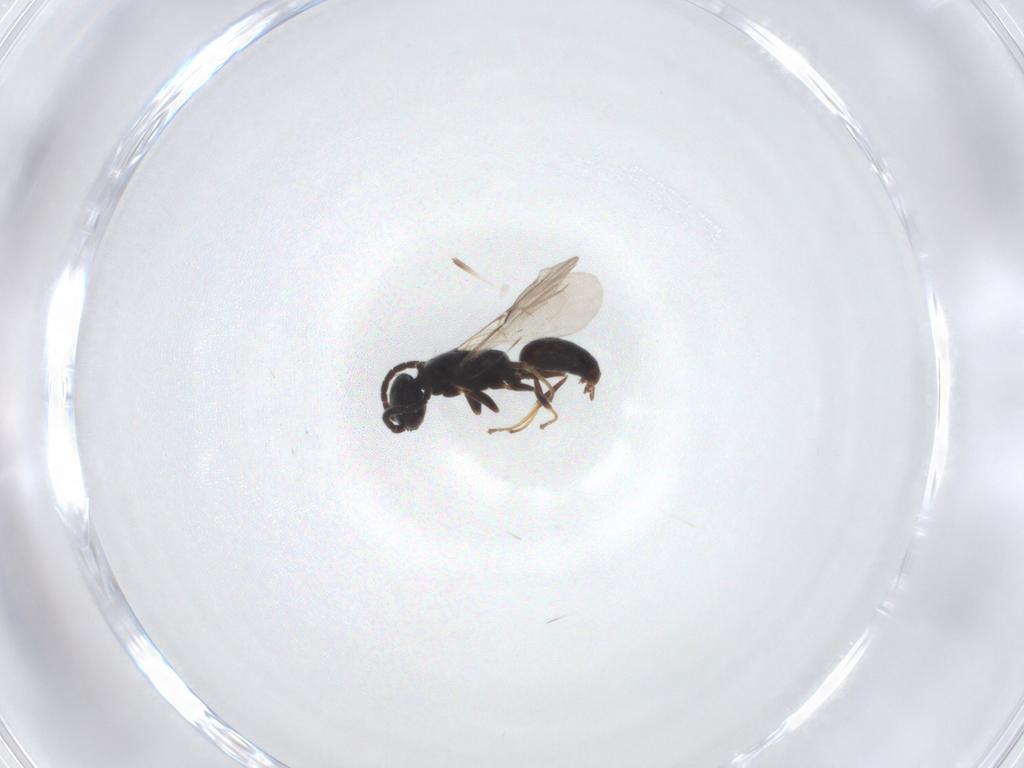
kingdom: Animalia
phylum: Arthropoda
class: Insecta
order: Hymenoptera
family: Bethylidae
